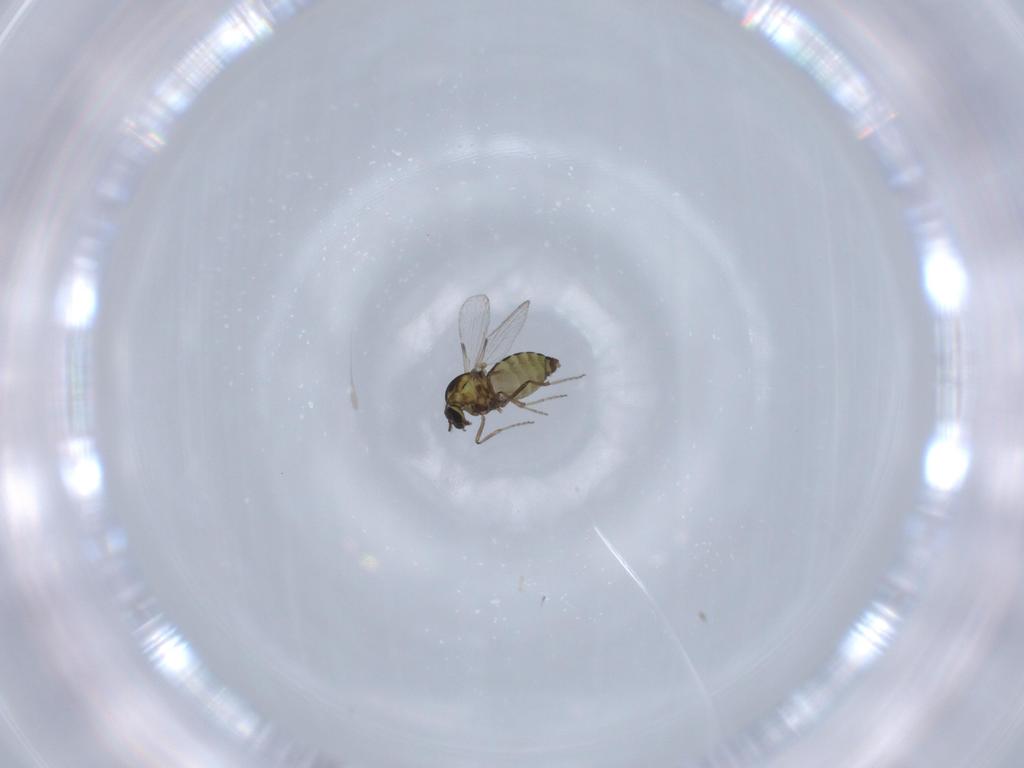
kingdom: Animalia
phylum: Arthropoda
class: Insecta
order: Diptera
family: Ceratopogonidae
